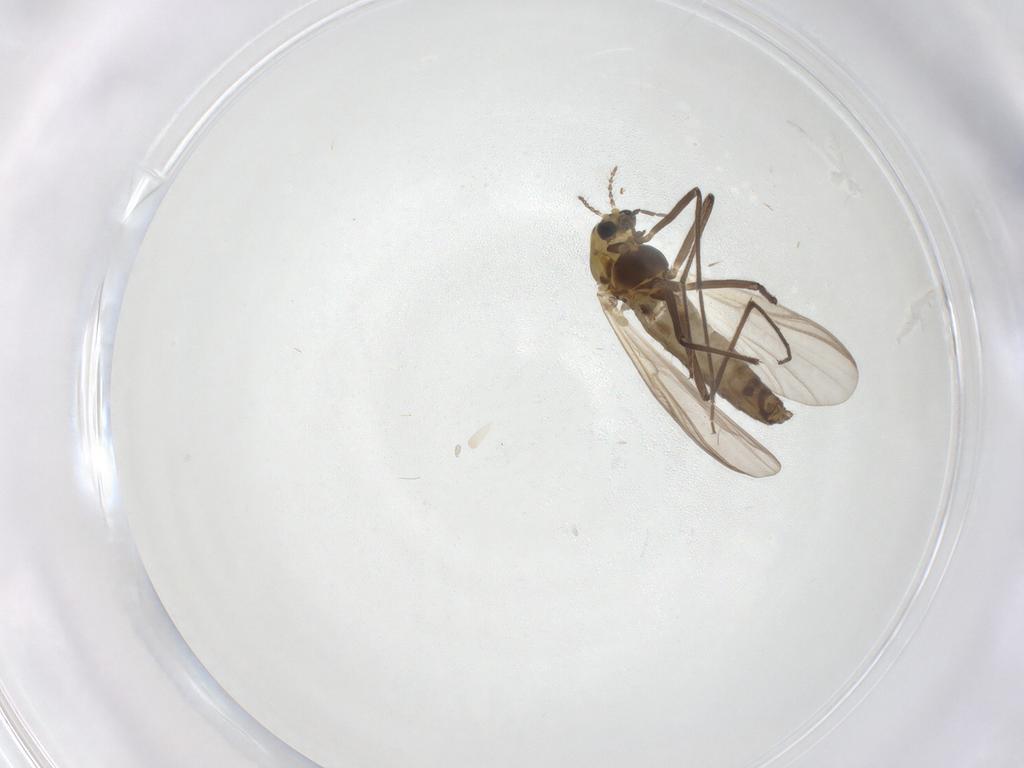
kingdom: Animalia
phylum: Arthropoda
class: Insecta
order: Diptera
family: Chironomidae
